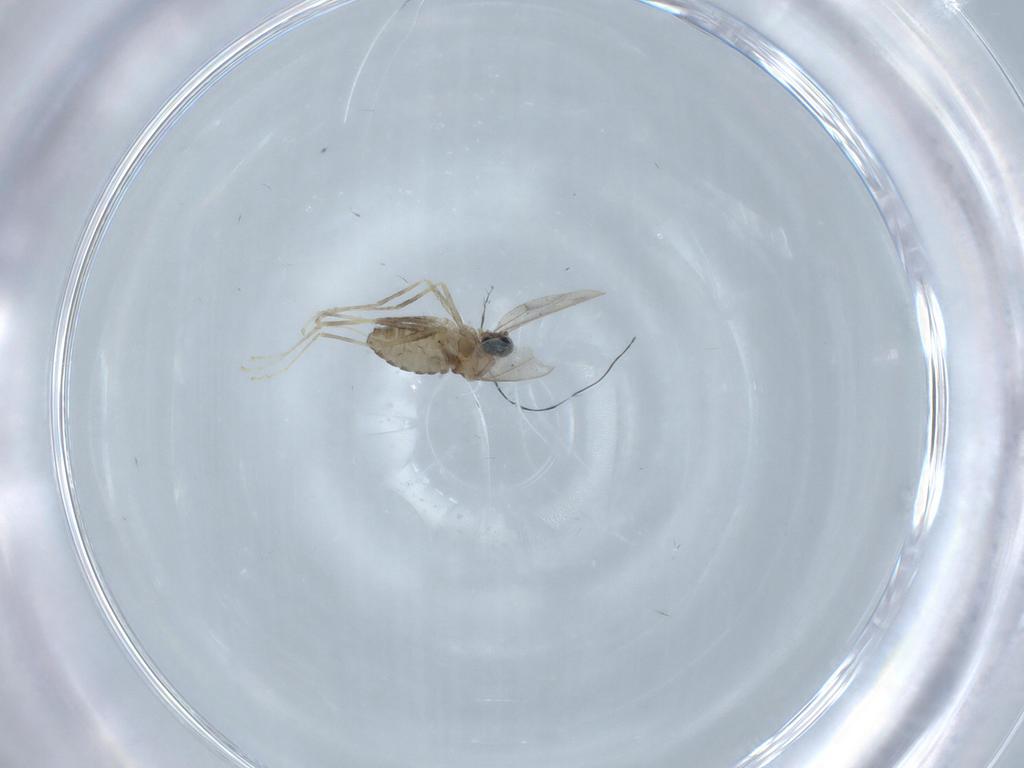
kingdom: Animalia
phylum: Arthropoda
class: Insecta
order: Diptera
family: Cecidomyiidae
